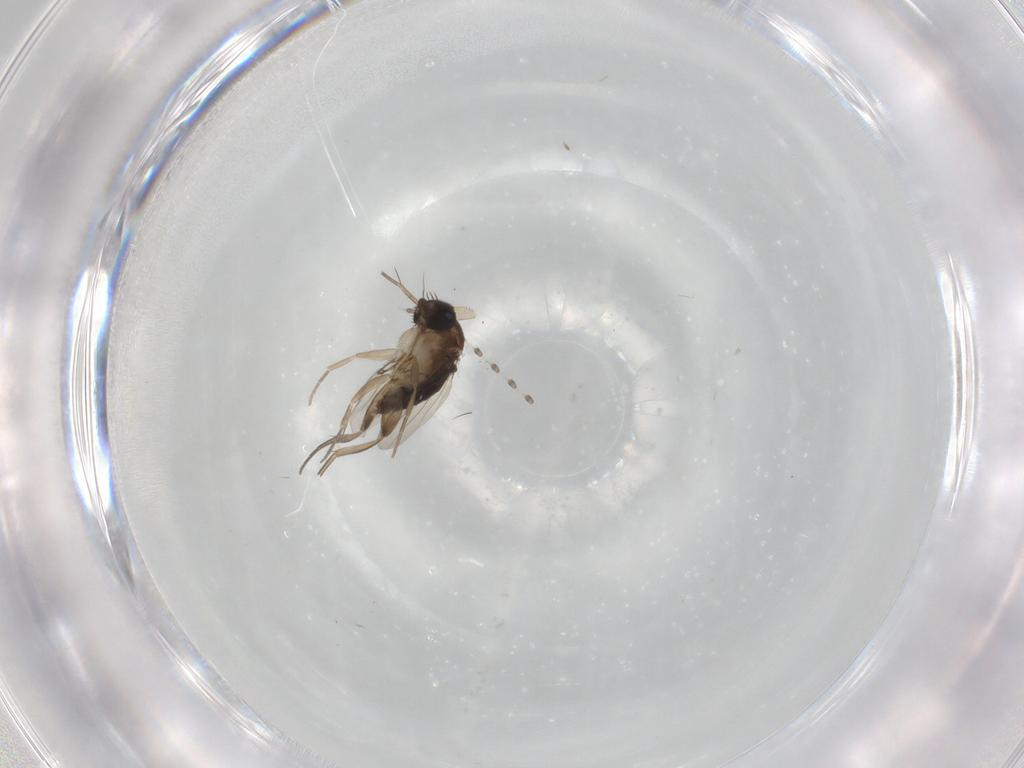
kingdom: Animalia
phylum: Arthropoda
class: Insecta
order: Diptera
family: Phoridae
